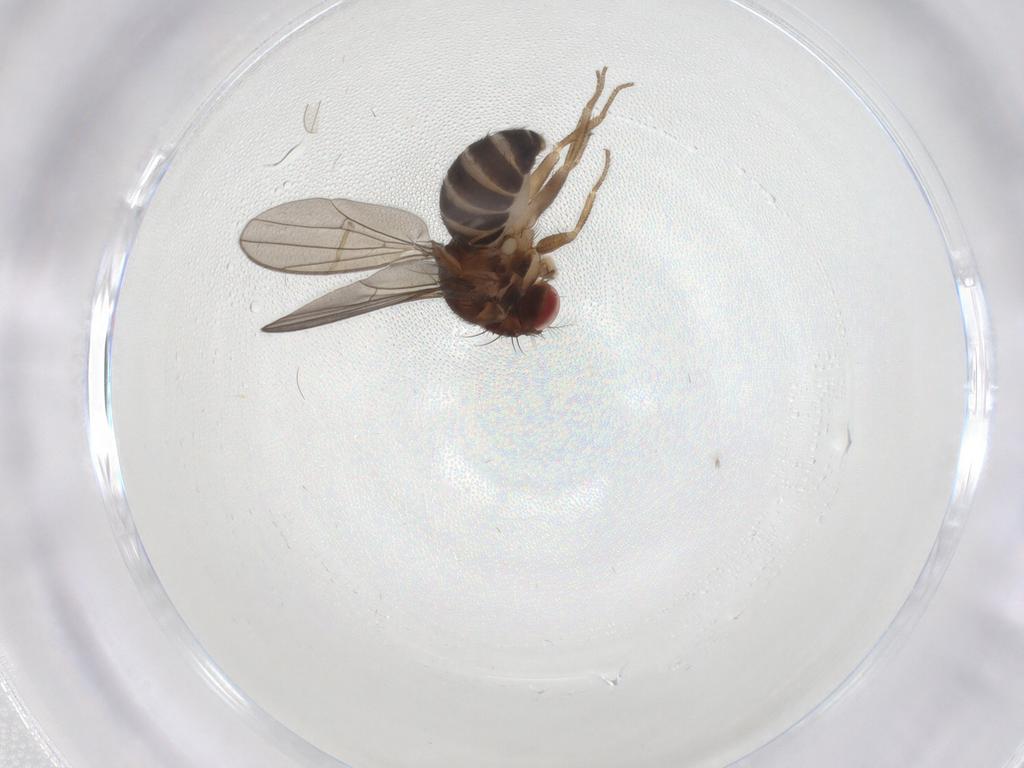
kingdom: Animalia
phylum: Arthropoda
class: Insecta
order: Diptera
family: Drosophilidae
